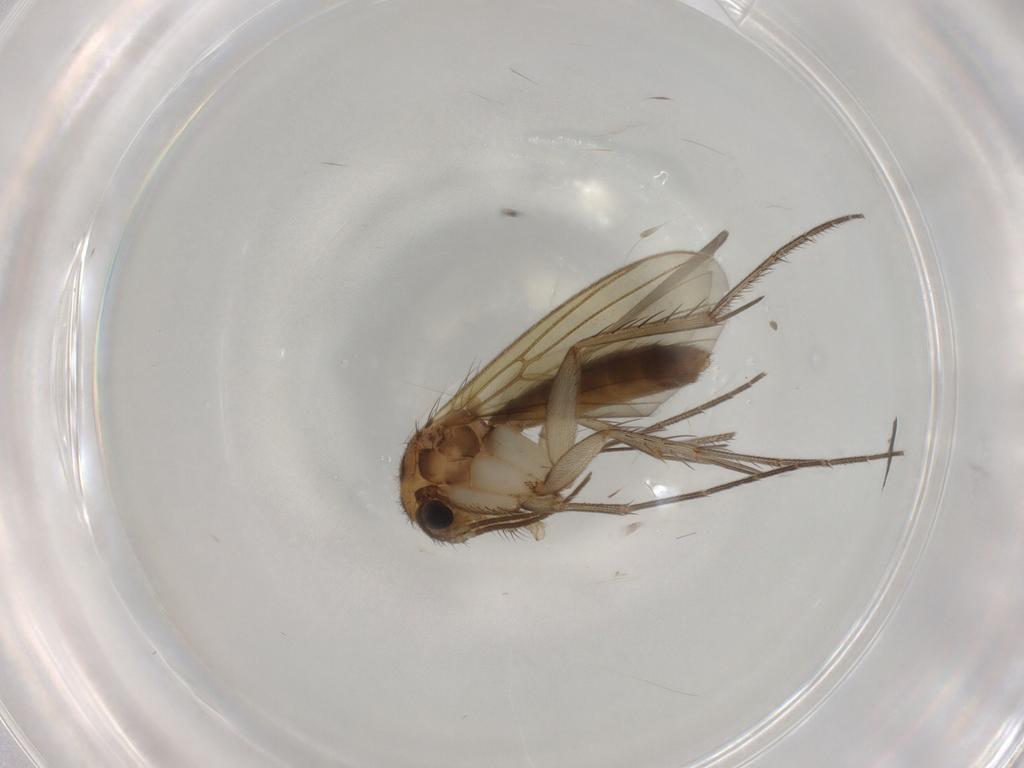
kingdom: Animalia
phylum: Arthropoda
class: Insecta
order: Diptera
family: Mycetophilidae
